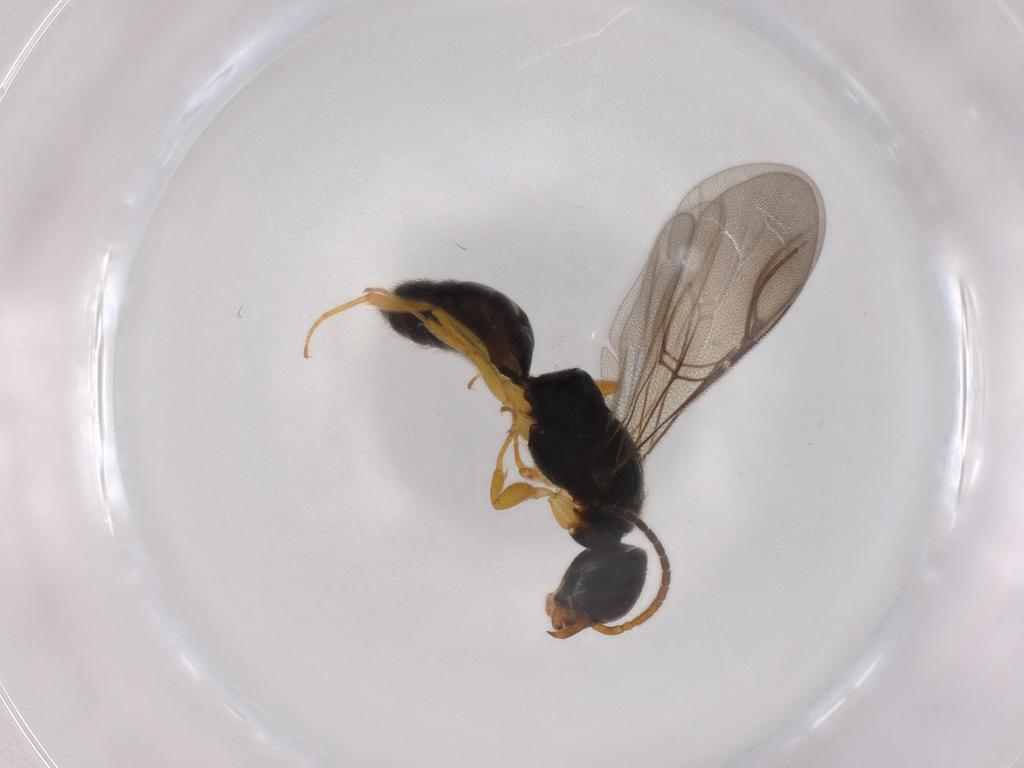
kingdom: Animalia
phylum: Arthropoda
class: Insecta
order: Hymenoptera
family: Bethylidae
